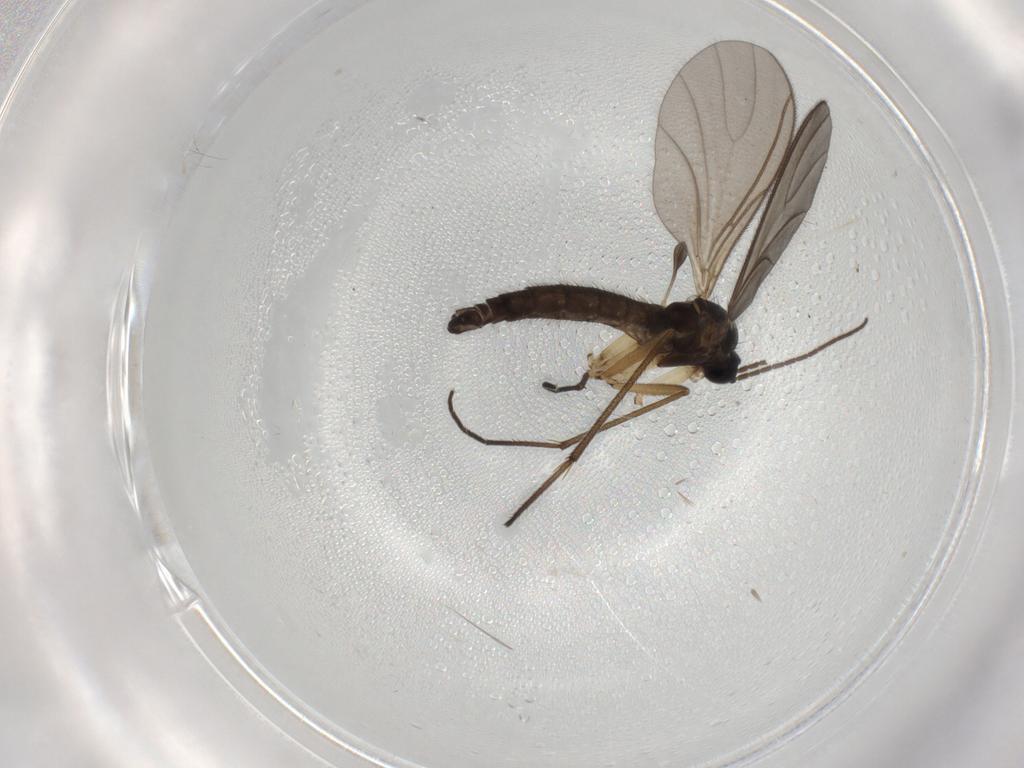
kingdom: Animalia
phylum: Arthropoda
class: Insecta
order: Diptera
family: Sciaridae
